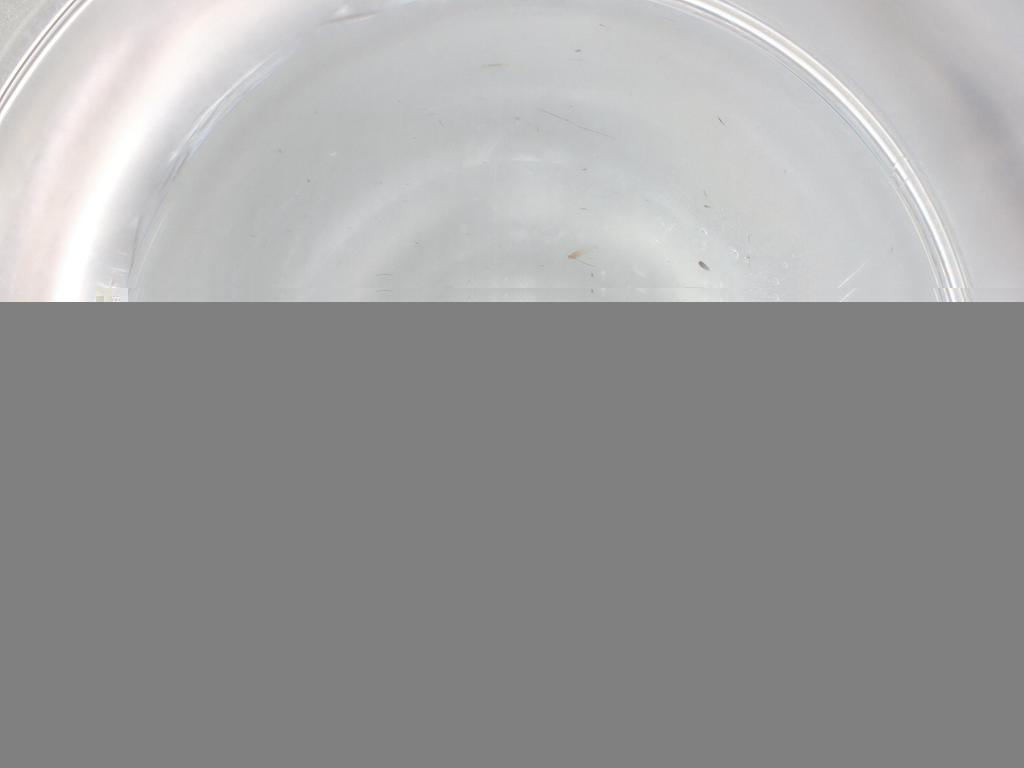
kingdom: Animalia
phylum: Arthropoda
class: Insecta
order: Diptera
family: Sphaeroceridae
